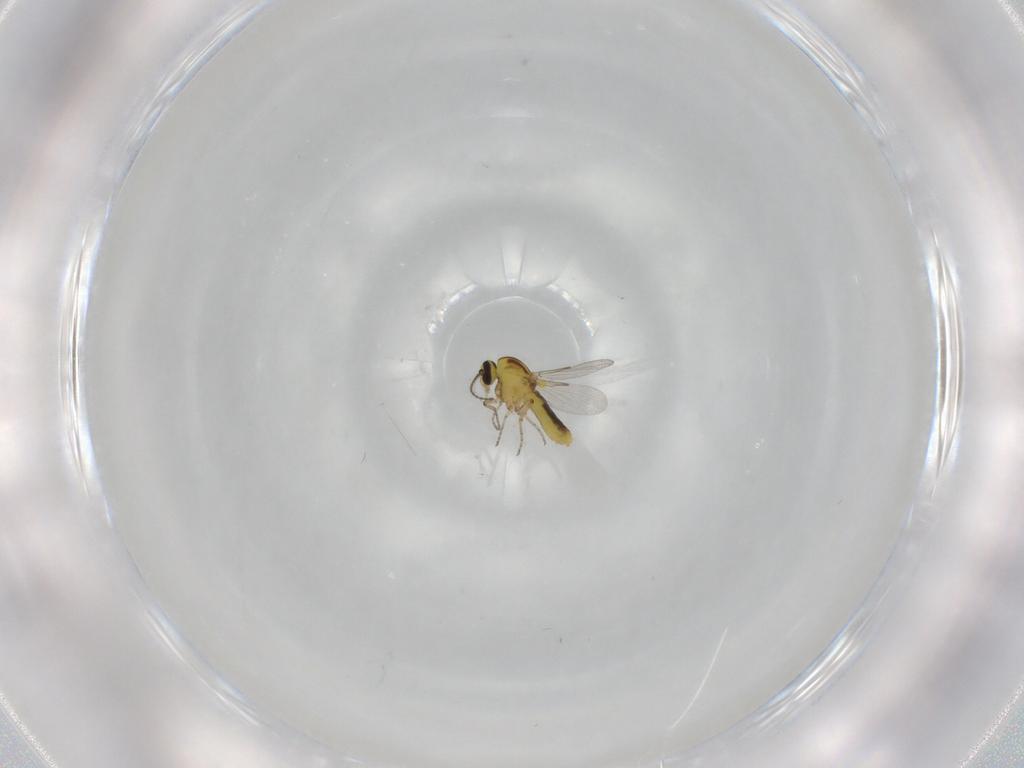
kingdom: Animalia
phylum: Arthropoda
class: Insecta
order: Diptera
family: Ceratopogonidae
